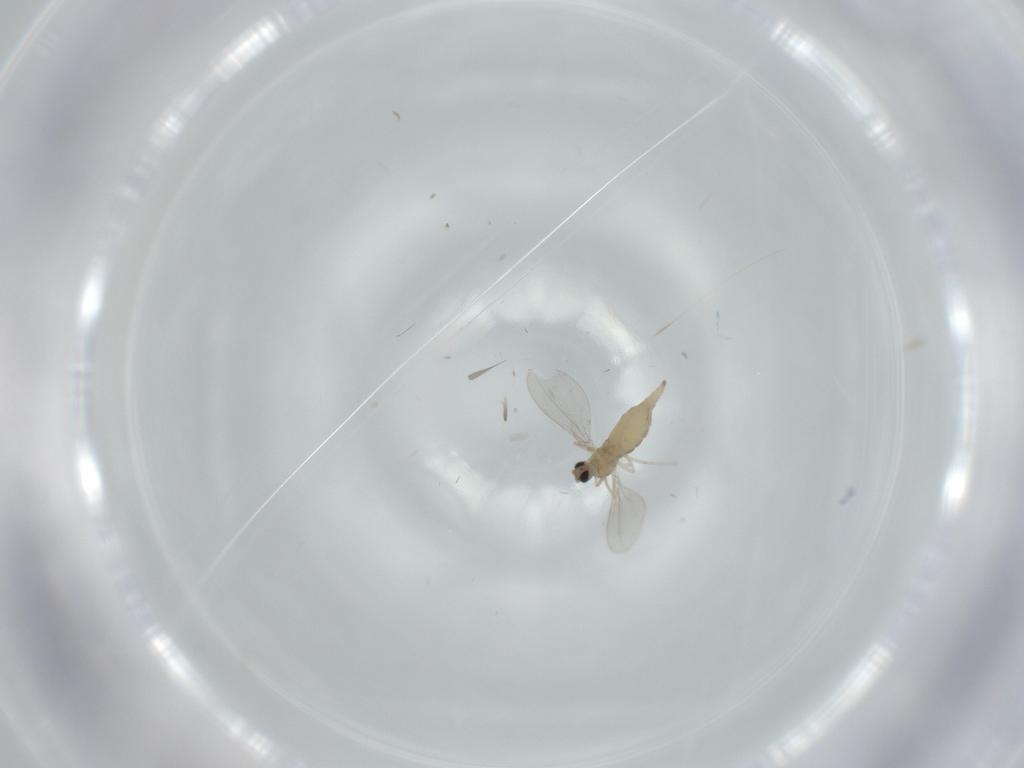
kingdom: Animalia
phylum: Arthropoda
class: Insecta
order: Diptera
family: Cecidomyiidae
